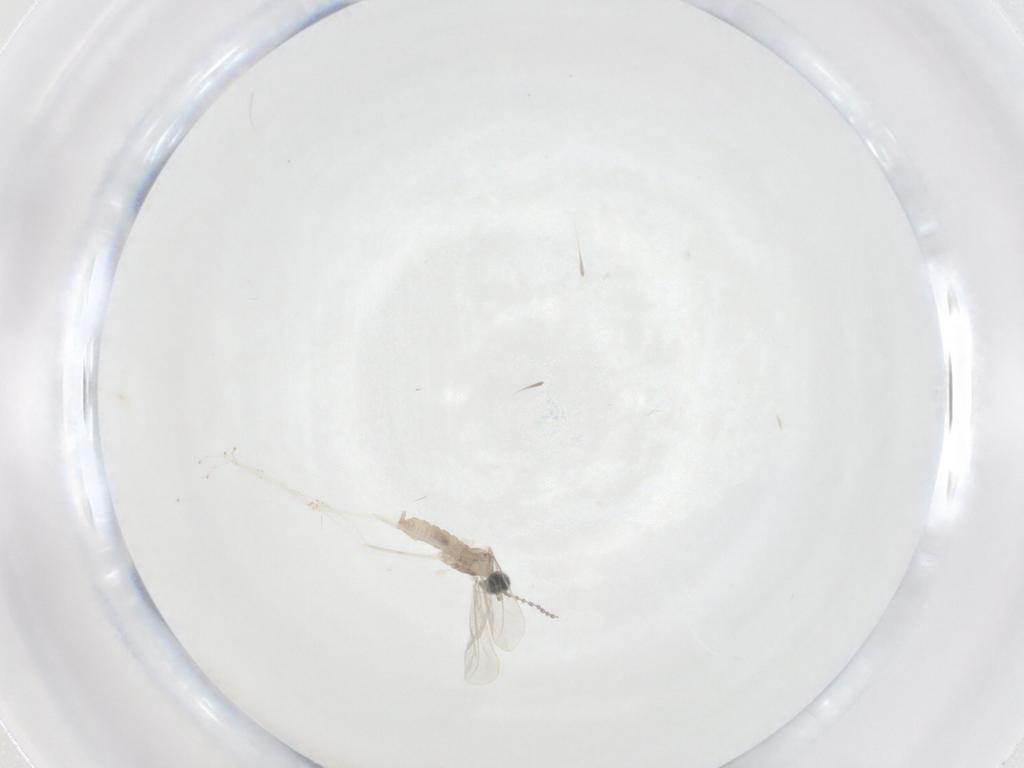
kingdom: Animalia
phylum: Arthropoda
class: Insecta
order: Diptera
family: Cecidomyiidae
